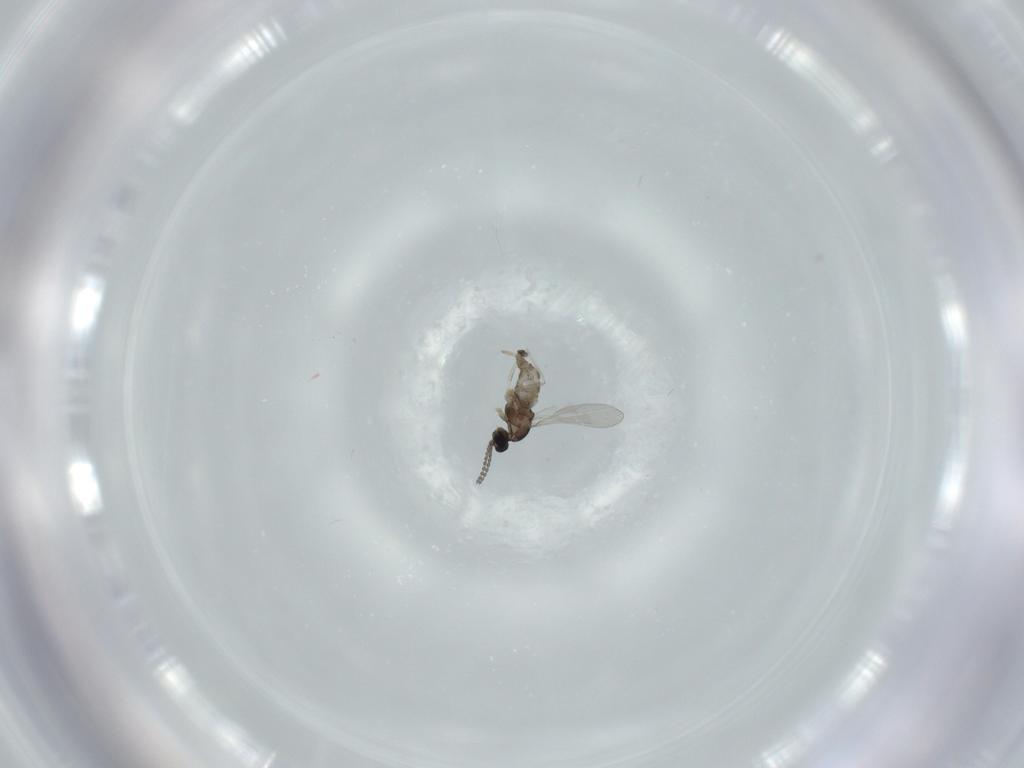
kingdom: Animalia
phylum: Arthropoda
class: Insecta
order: Diptera
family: Cecidomyiidae
